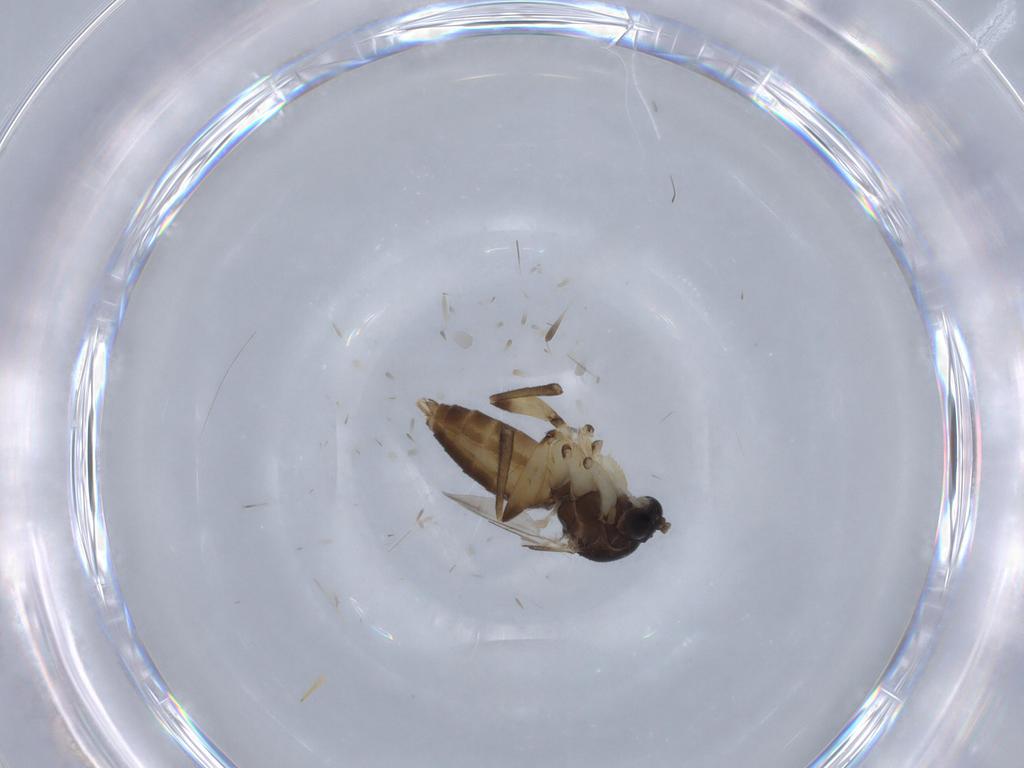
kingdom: Animalia
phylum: Arthropoda
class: Insecta
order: Diptera
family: Mycetophilidae
